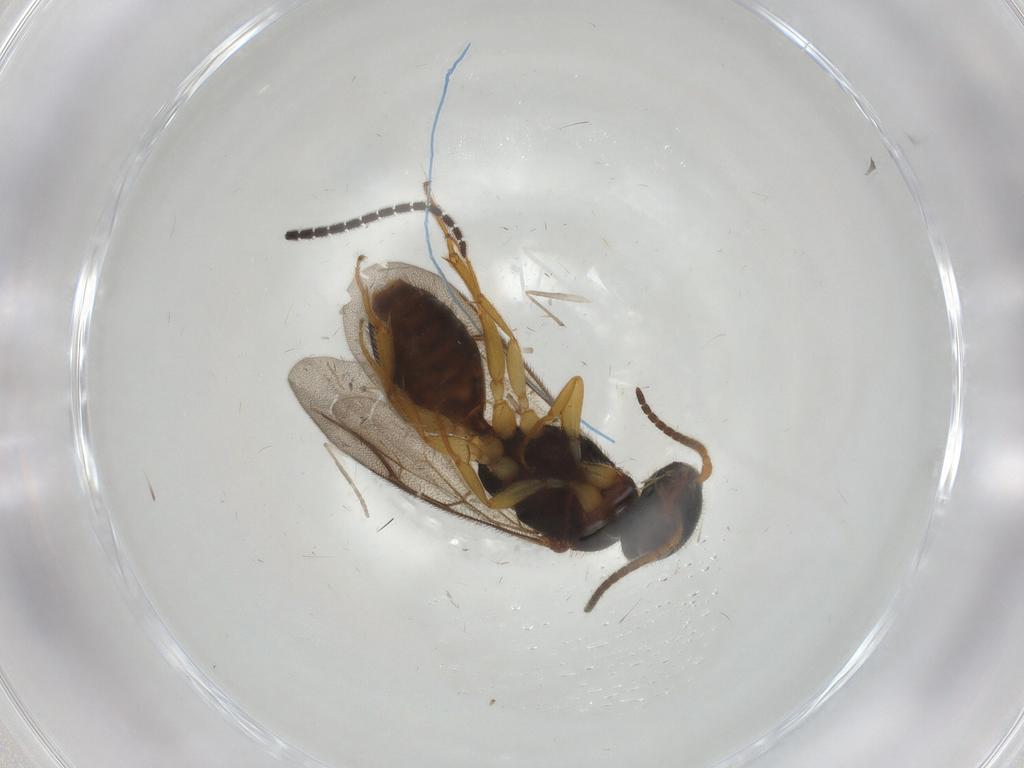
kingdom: Animalia
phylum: Arthropoda
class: Insecta
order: Hymenoptera
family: Bethylidae
